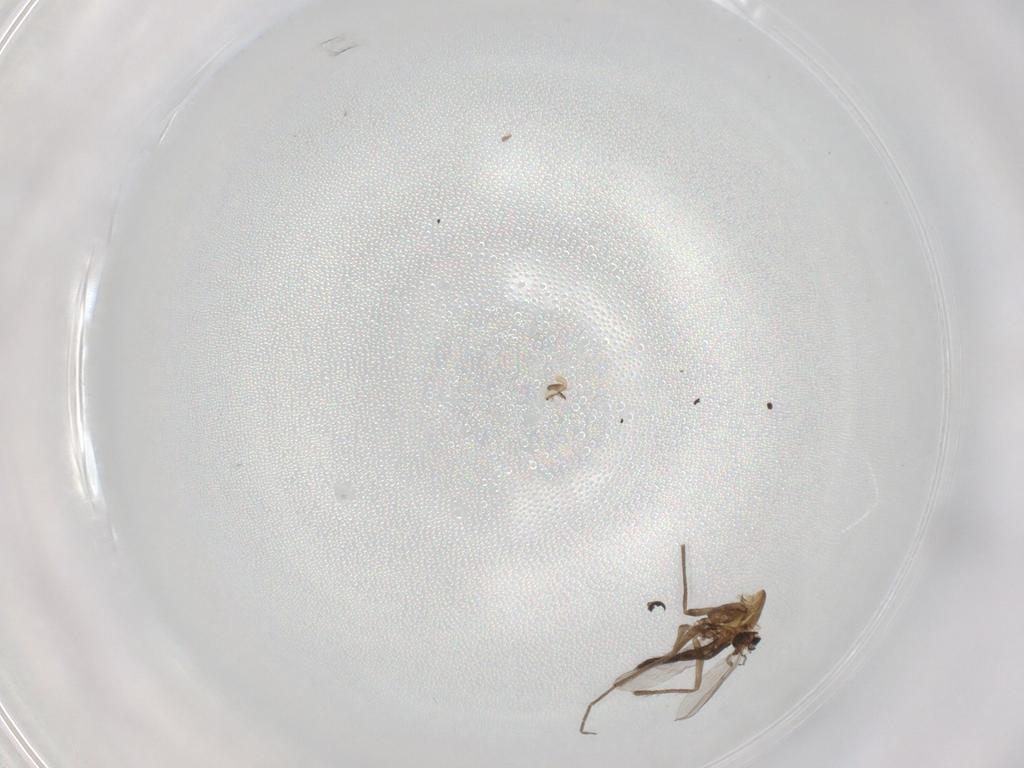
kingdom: Animalia
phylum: Arthropoda
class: Insecta
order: Diptera
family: Chironomidae
